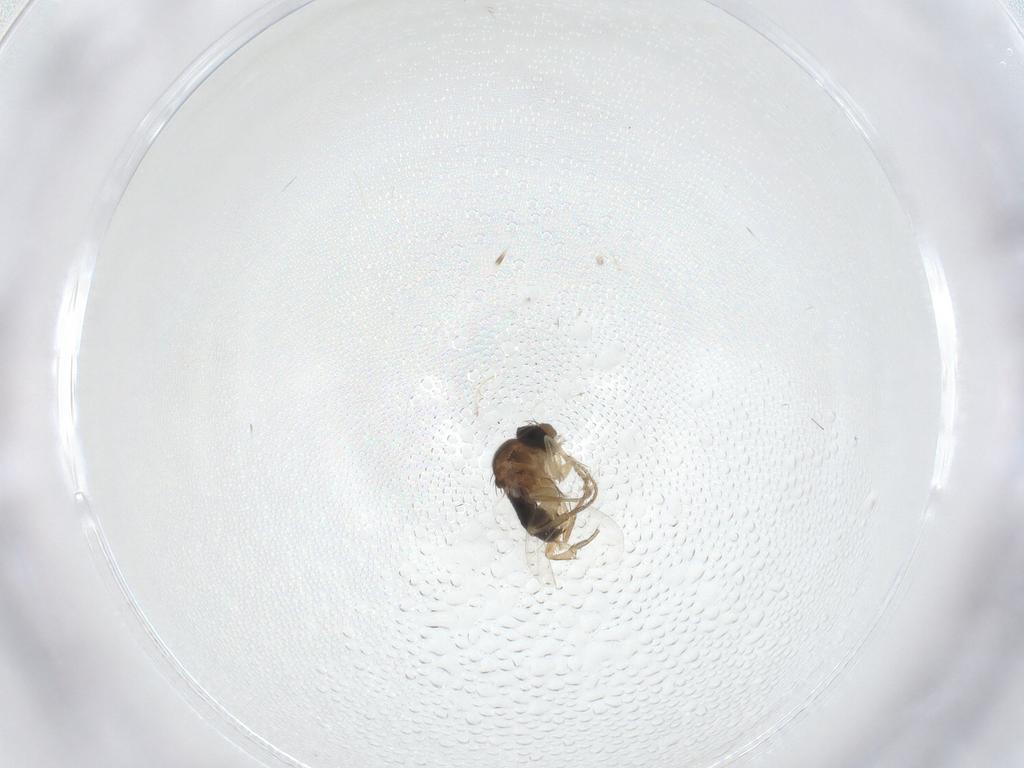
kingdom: Animalia
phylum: Arthropoda
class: Insecta
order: Diptera
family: Cecidomyiidae
